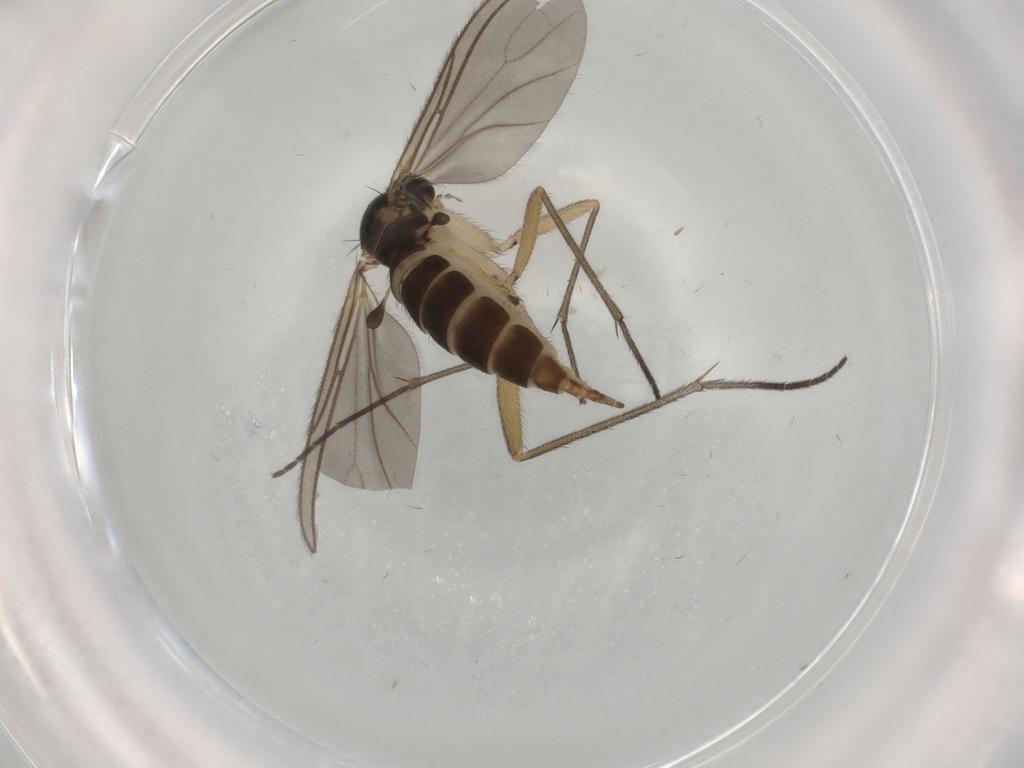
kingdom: Animalia
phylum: Arthropoda
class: Insecta
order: Diptera
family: Sciaridae
